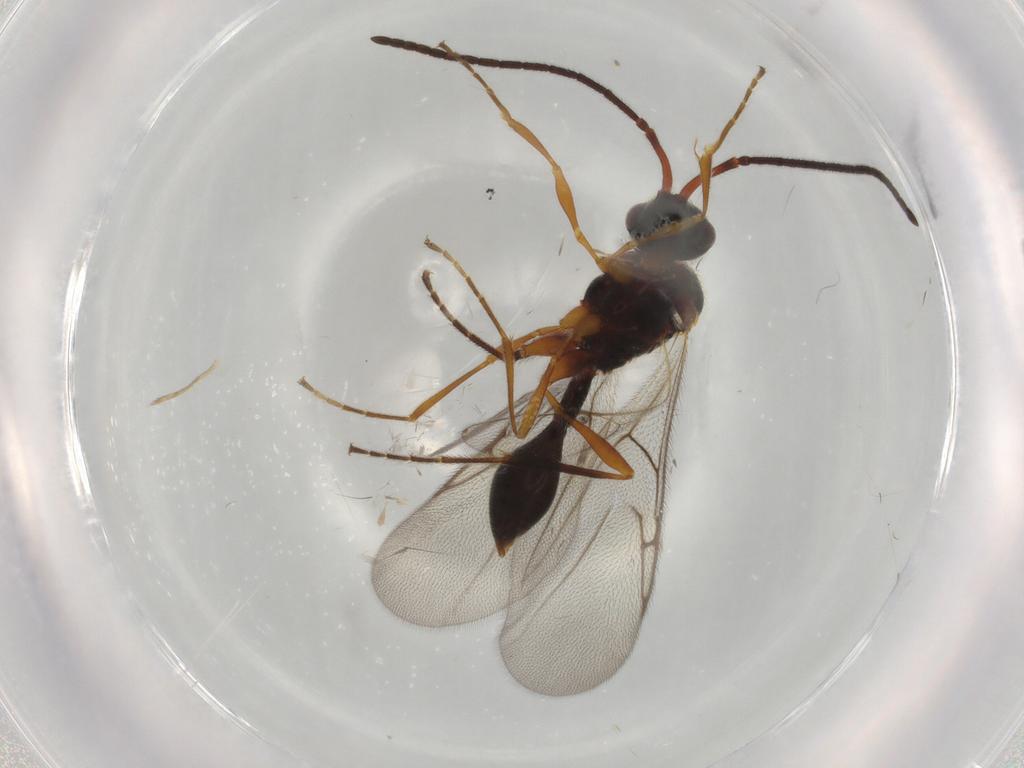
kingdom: Animalia
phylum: Arthropoda
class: Insecta
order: Hymenoptera
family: Diapriidae
